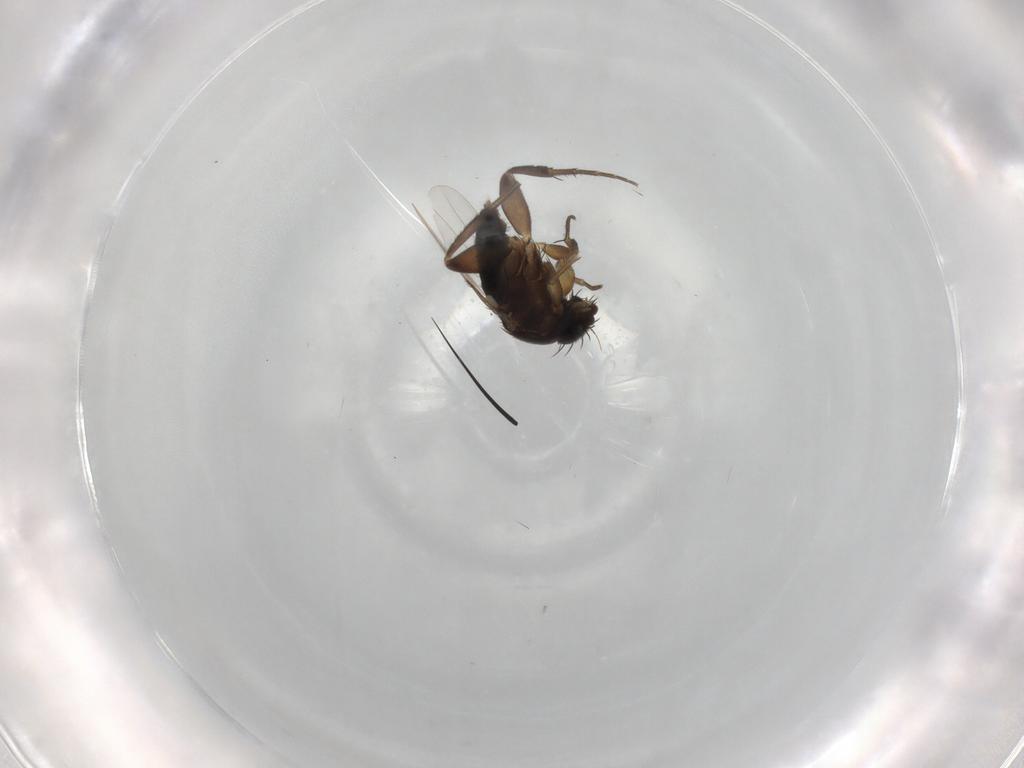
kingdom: Animalia
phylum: Arthropoda
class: Insecta
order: Diptera
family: Phoridae
